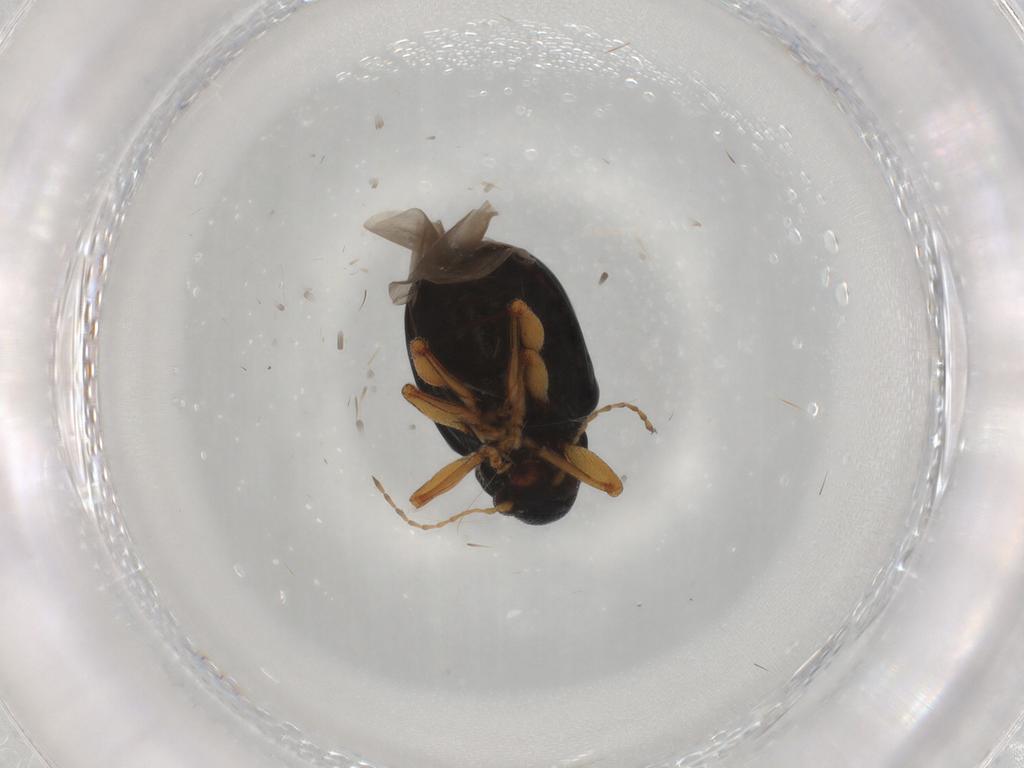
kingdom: Animalia
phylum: Arthropoda
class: Insecta
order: Coleoptera
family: Chrysomelidae
